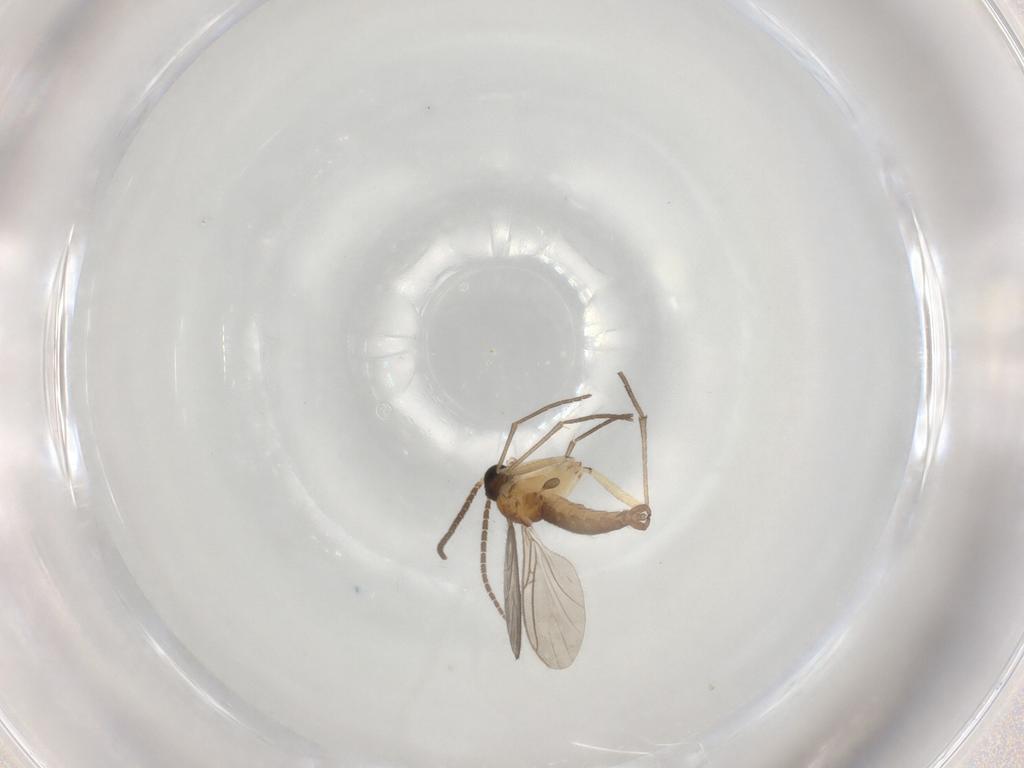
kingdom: Animalia
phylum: Arthropoda
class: Insecta
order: Diptera
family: Sciaridae
